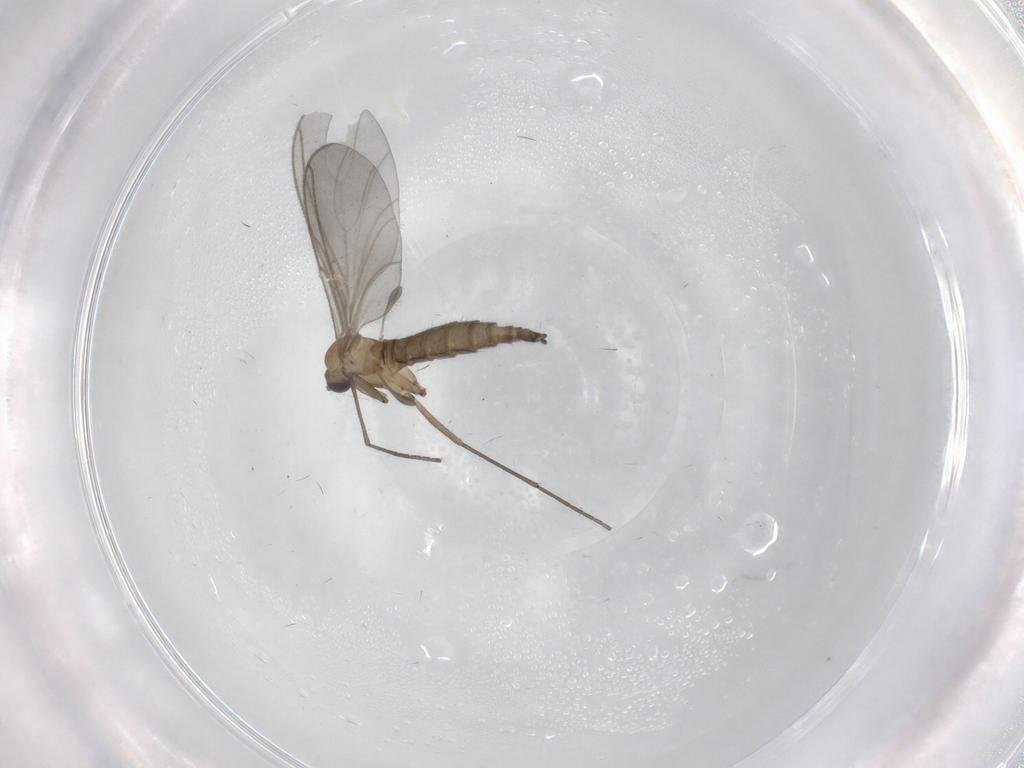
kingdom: Animalia
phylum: Arthropoda
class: Insecta
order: Diptera
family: Sciaridae
